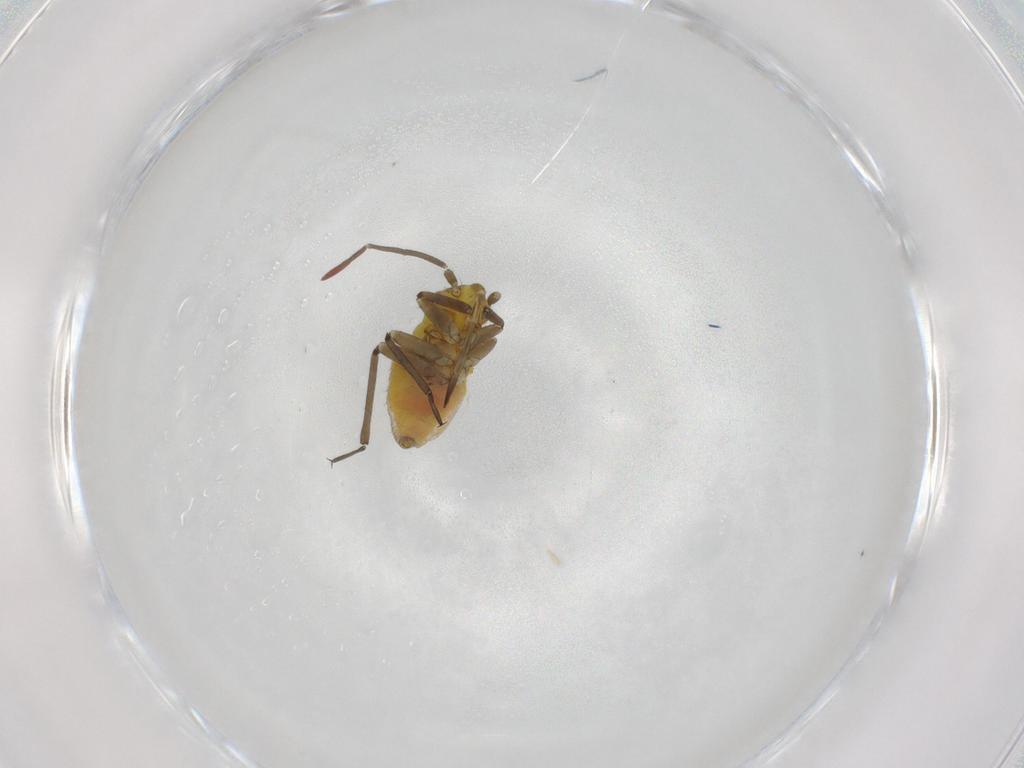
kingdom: Animalia
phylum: Arthropoda
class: Insecta
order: Hemiptera
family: Miridae
